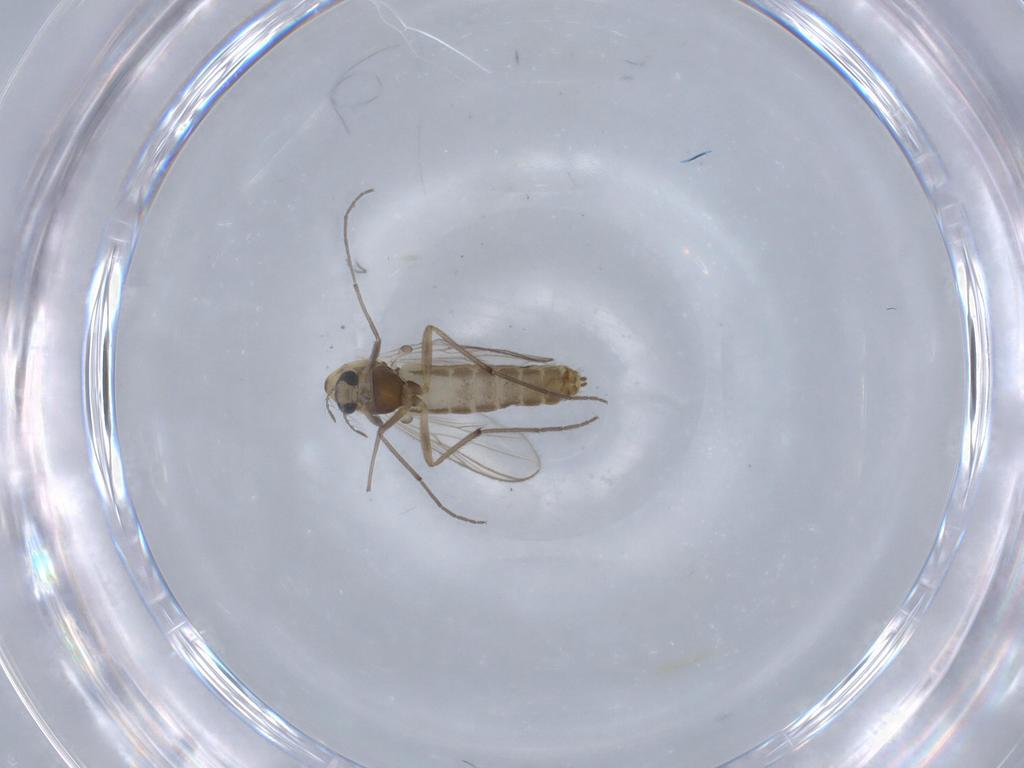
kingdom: Animalia
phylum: Arthropoda
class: Insecta
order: Diptera
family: Chironomidae
